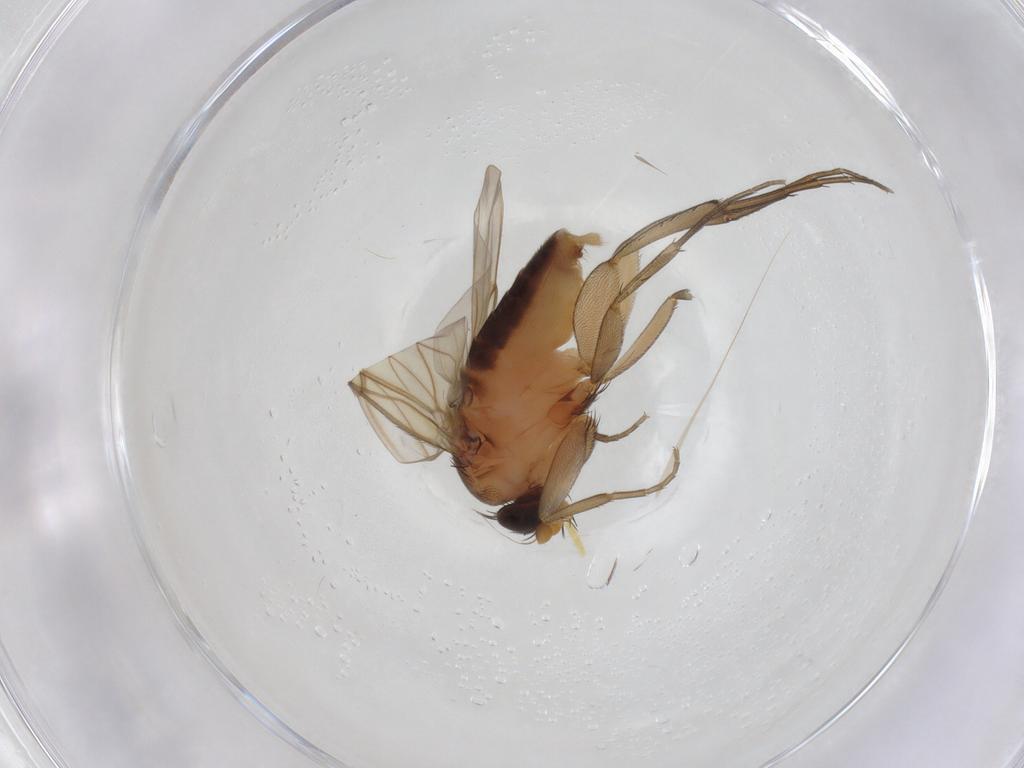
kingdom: Animalia
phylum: Arthropoda
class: Insecta
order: Diptera
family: Phoridae
